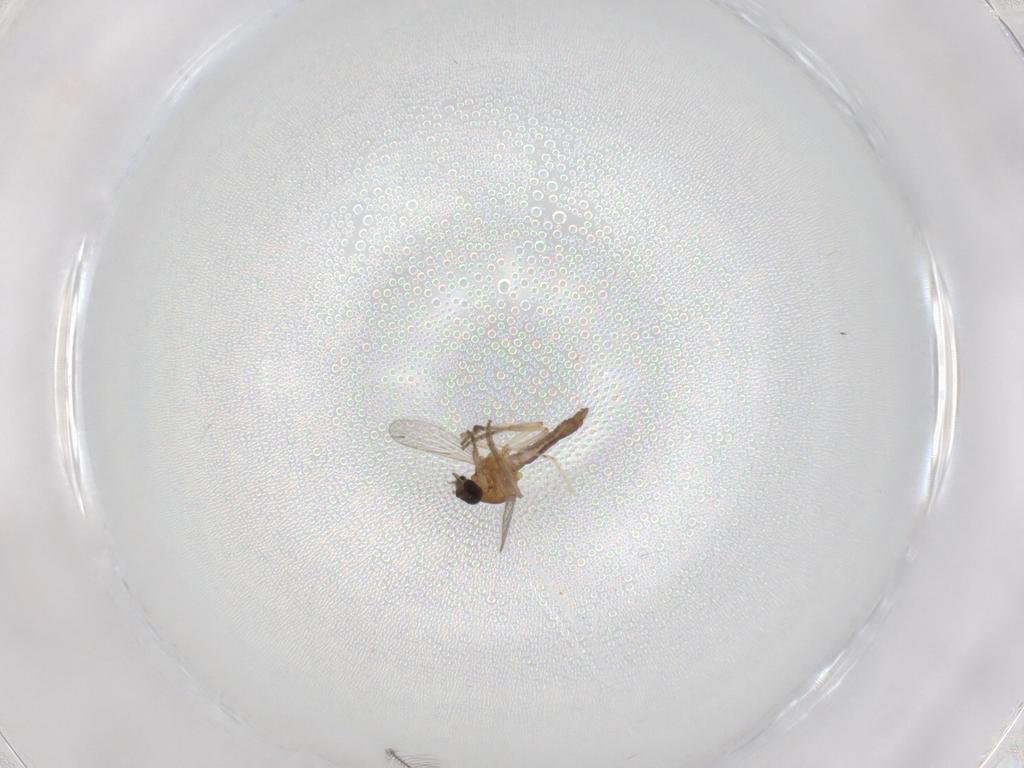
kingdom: Animalia
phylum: Arthropoda
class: Insecta
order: Diptera
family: Ceratopogonidae
